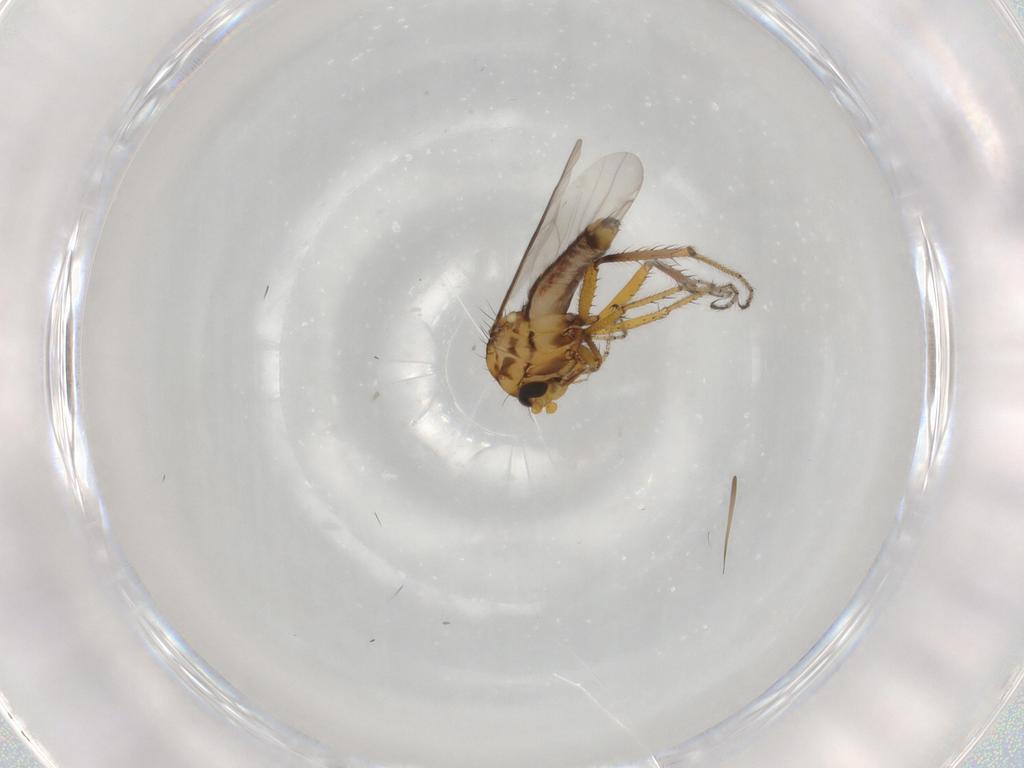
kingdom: Animalia
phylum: Arthropoda
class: Insecta
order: Diptera
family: Ceratopogonidae
